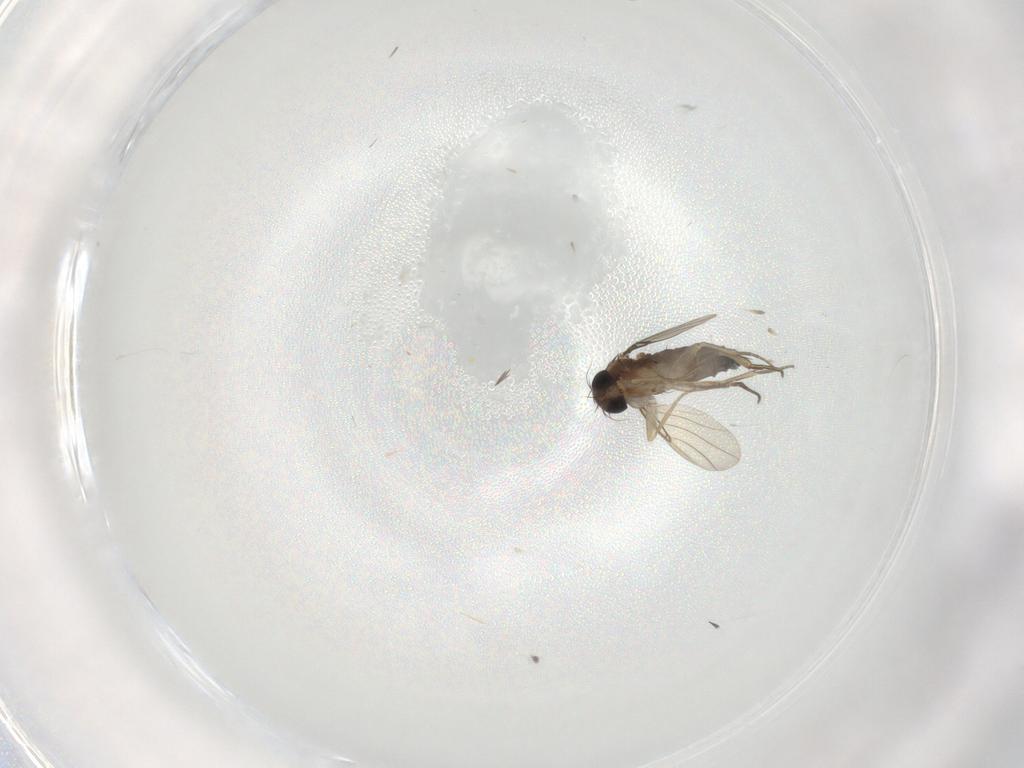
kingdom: Animalia
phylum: Arthropoda
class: Insecta
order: Diptera
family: Phoridae
